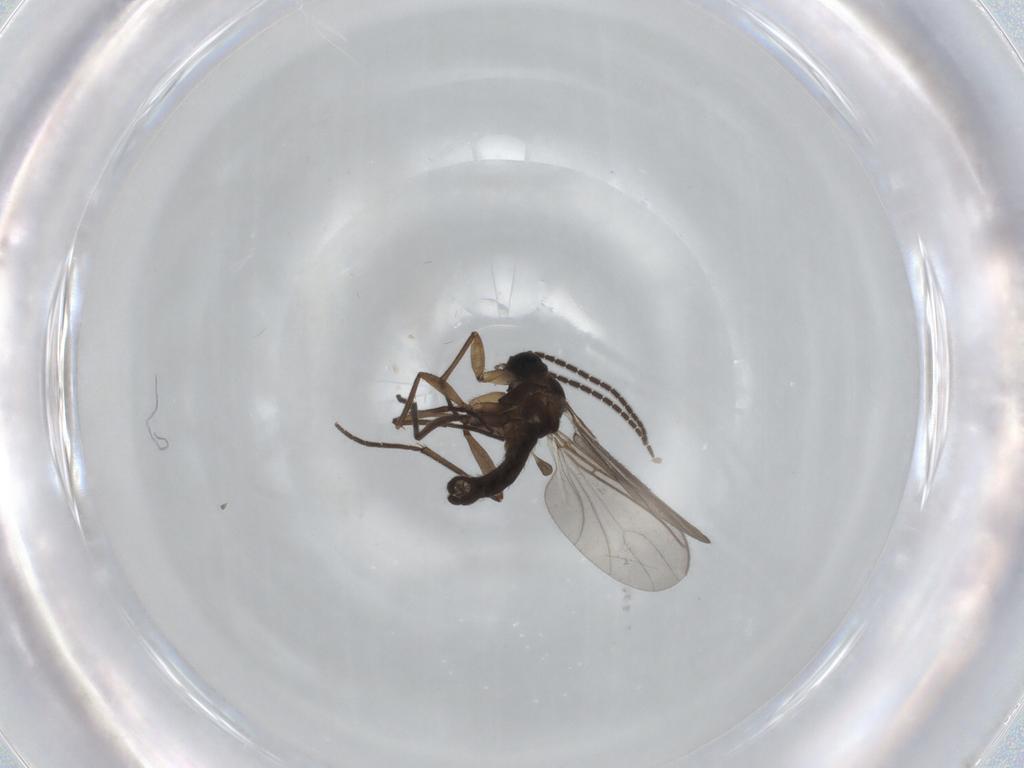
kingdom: Animalia
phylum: Arthropoda
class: Insecta
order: Diptera
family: Sciaridae
